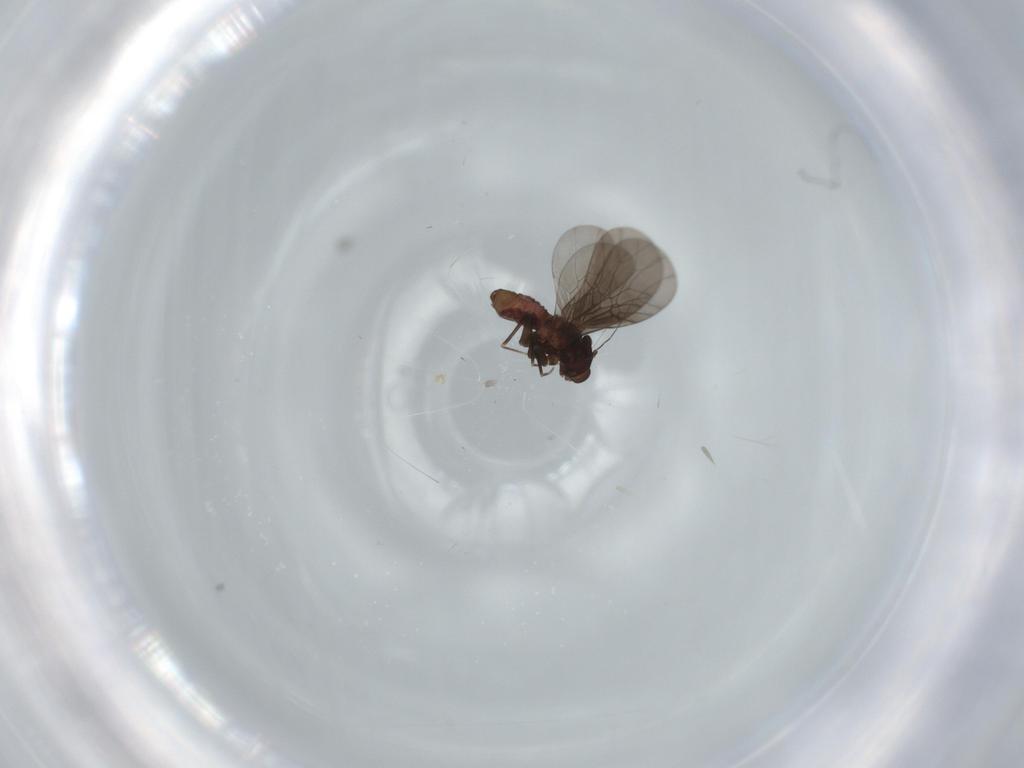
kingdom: Animalia
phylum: Arthropoda
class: Insecta
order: Psocodea
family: Lepidopsocidae
